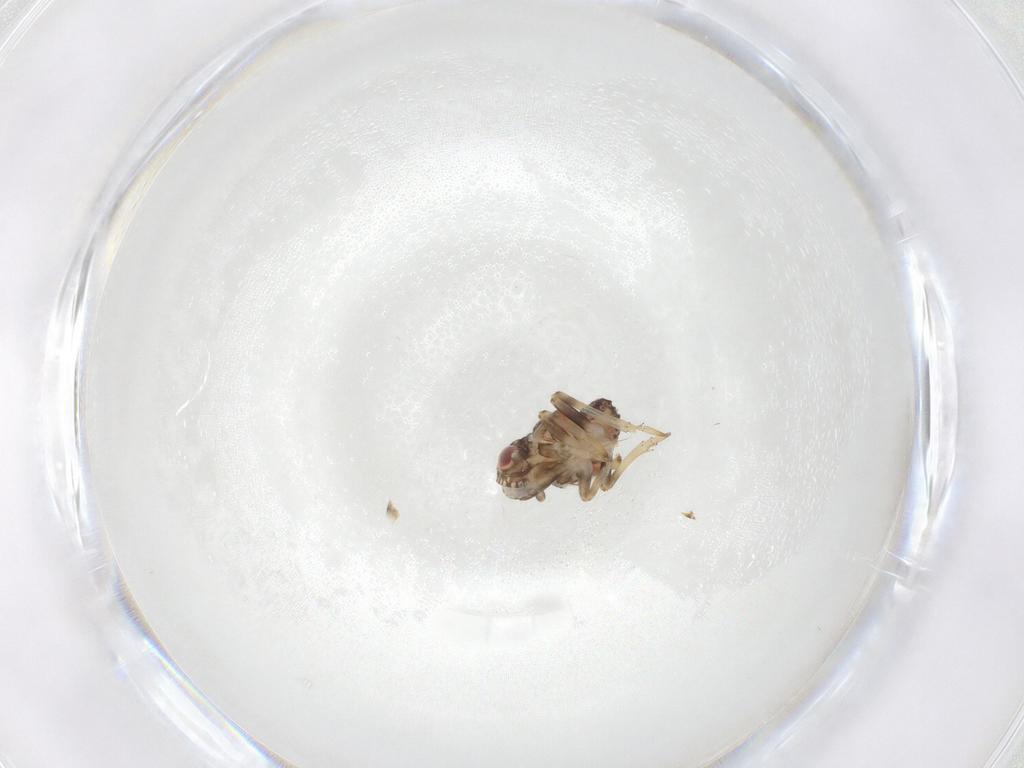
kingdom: Animalia
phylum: Arthropoda
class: Insecta
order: Hemiptera
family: Tropiduchidae
